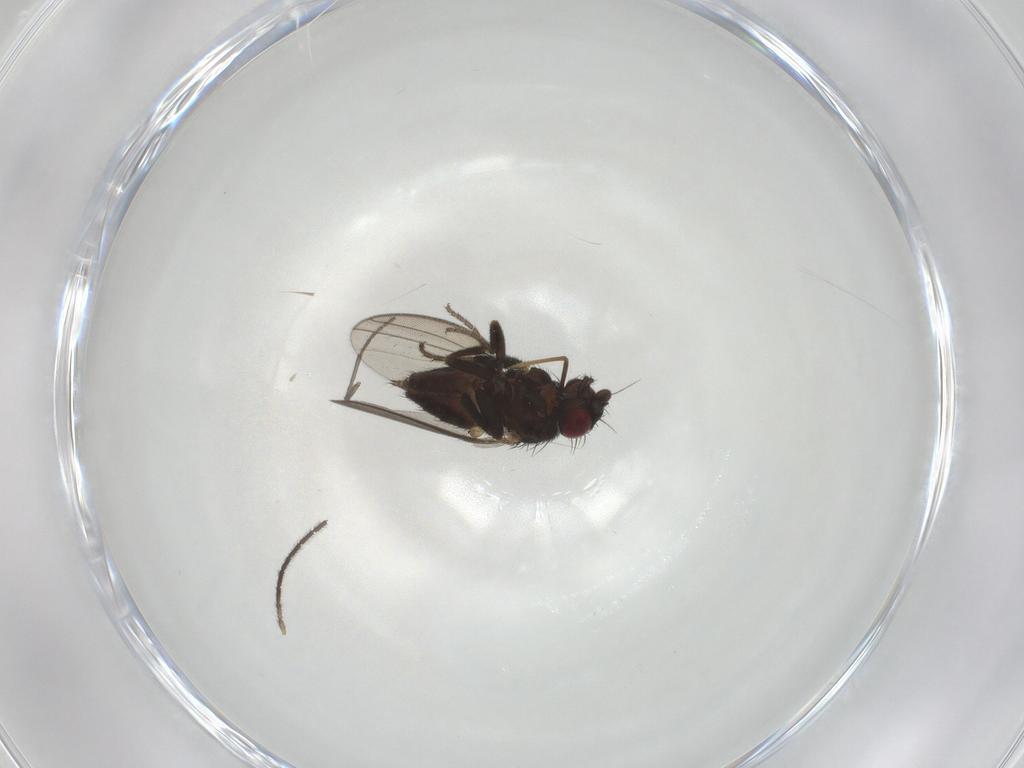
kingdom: Animalia
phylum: Arthropoda
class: Insecta
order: Diptera
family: Milichiidae
